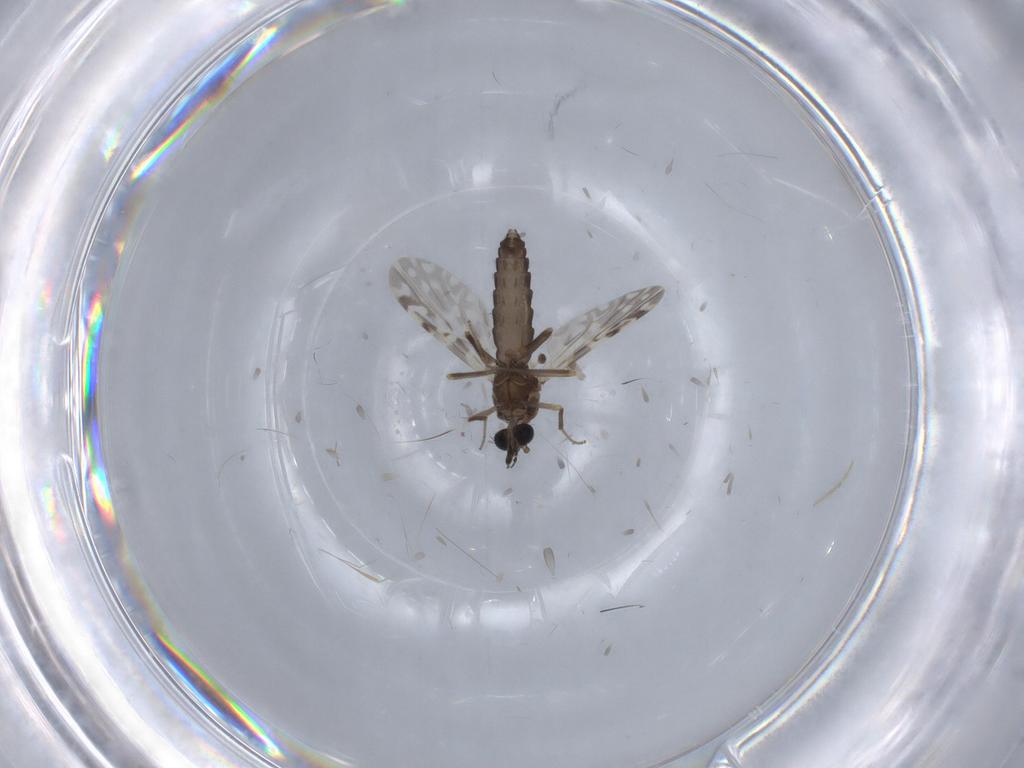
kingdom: Animalia
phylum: Arthropoda
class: Insecta
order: Diptera
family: Ceratopogonidae
